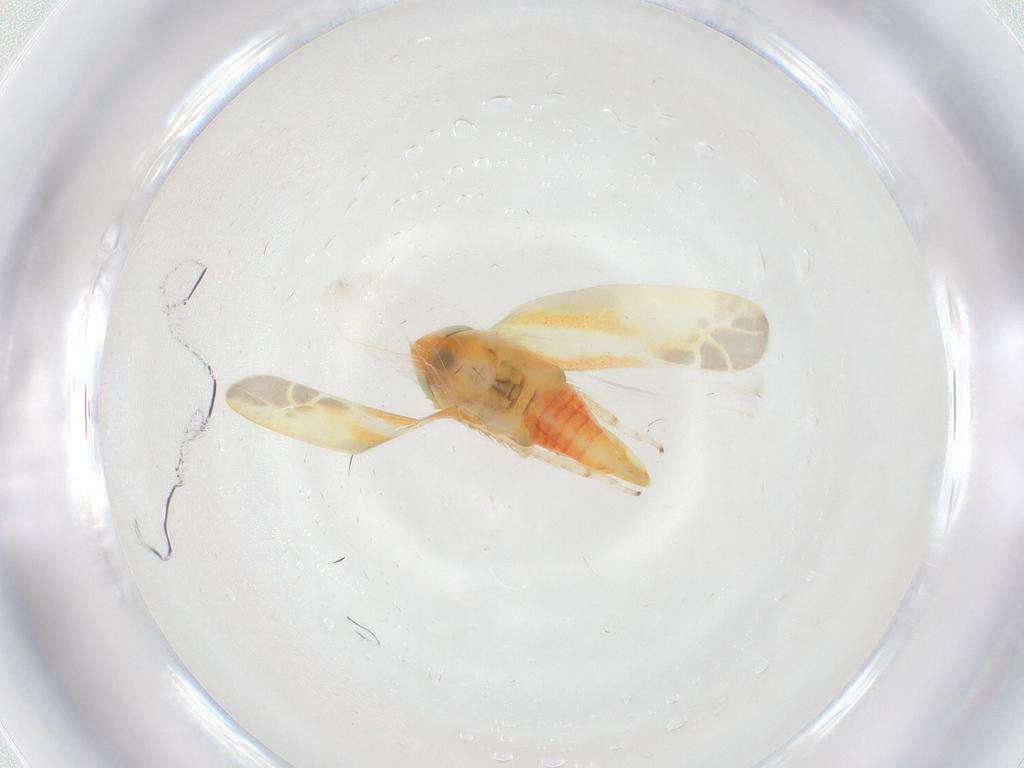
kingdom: Animalia
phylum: Arthropoda
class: Insecta
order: Hemiptera
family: Cicadellidae
